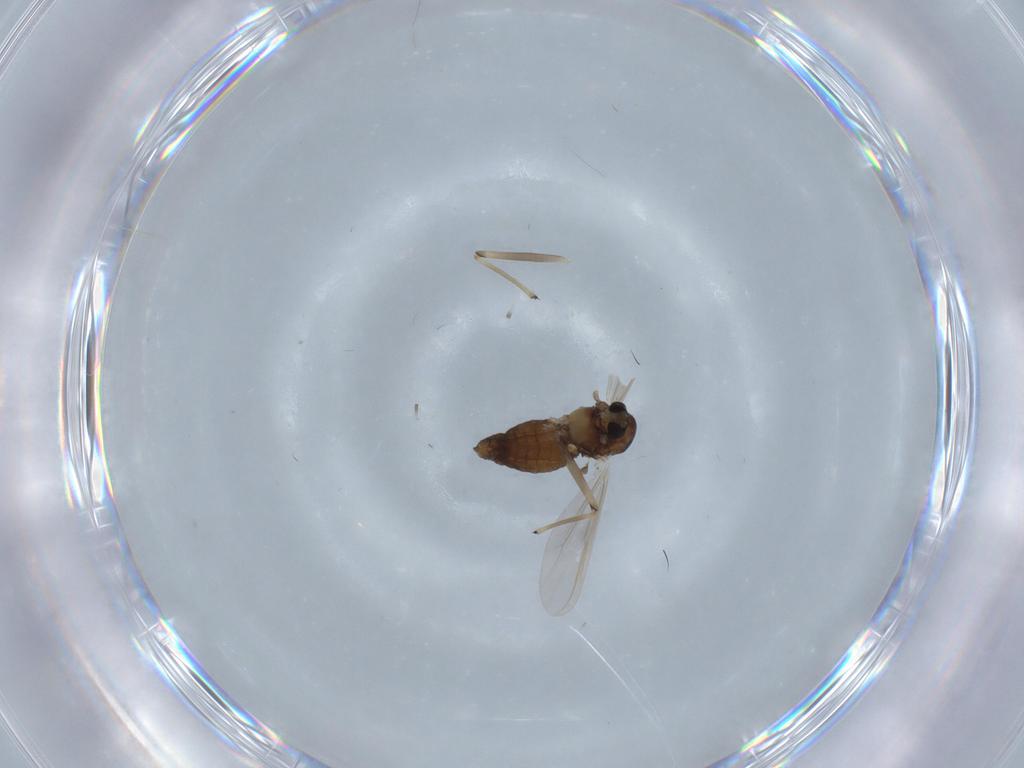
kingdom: Animalia
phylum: Arthropoda
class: Insecta
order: Diptera
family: Chironomidae
